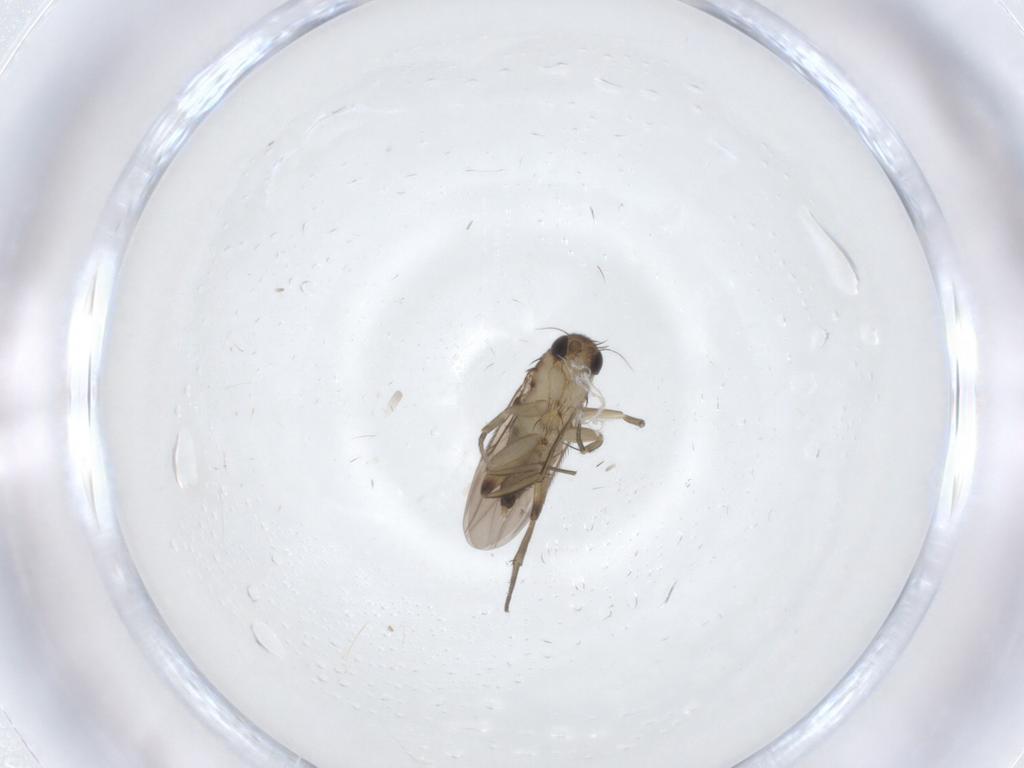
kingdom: Animalia
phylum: Arthropoda
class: Insecta
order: Diptera
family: Phoridae
